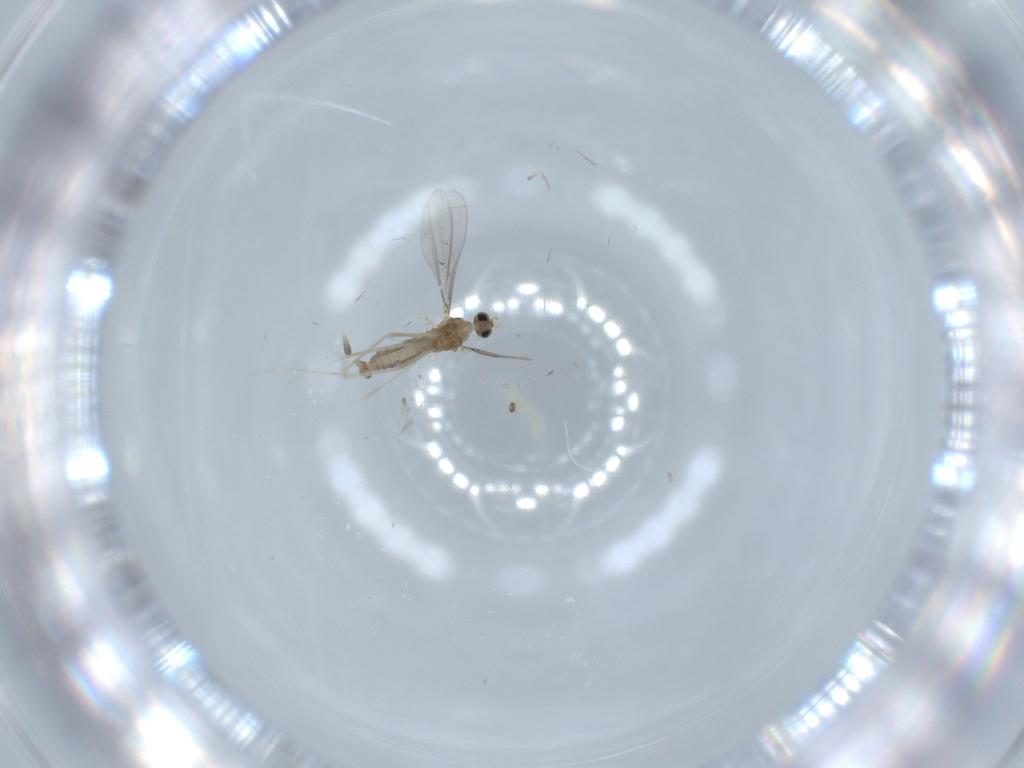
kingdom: Animalia
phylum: Arthropoda
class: Insecta
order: Diptera
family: Cecidomyiidae
